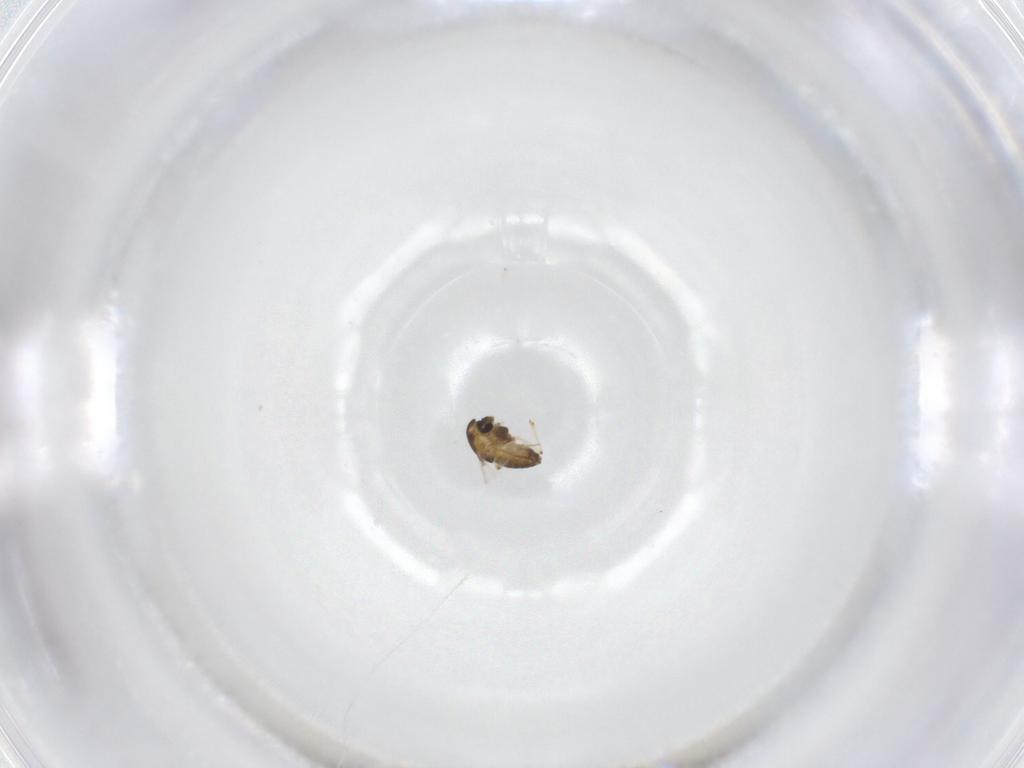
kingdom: Animalia
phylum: Arthropoda
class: Insecta
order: Diptera
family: Chironomidae
